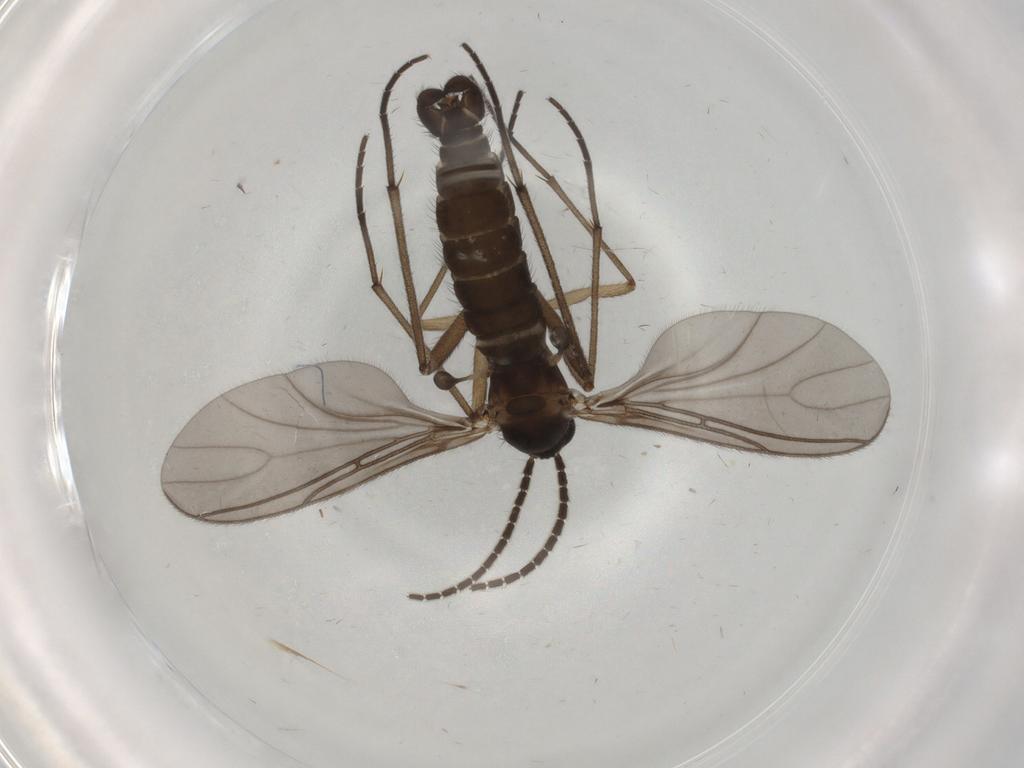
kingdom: Animalia
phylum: Arthropoda
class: Insecta
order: Diptera
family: Sciaridae
